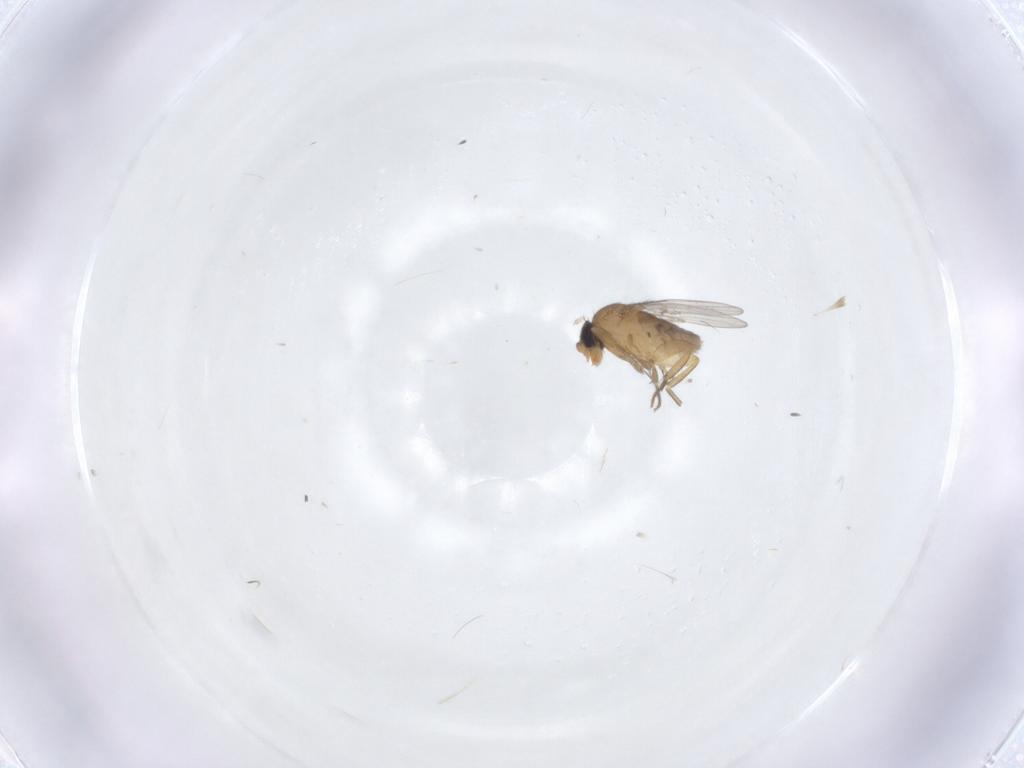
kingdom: Animalia
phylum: Arthropoda
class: Insecta
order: Diptera
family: Ceratopogonidae
